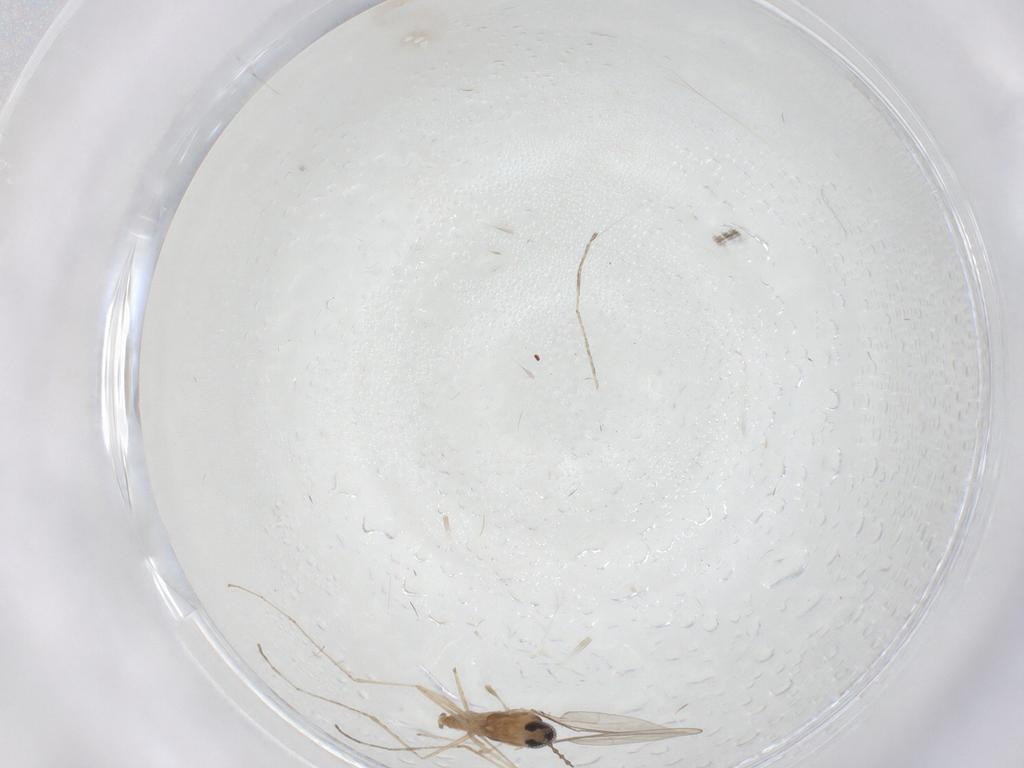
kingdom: Animalia
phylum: Arthropoda
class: Insecta
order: Diptera
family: Cecidomyiidae
